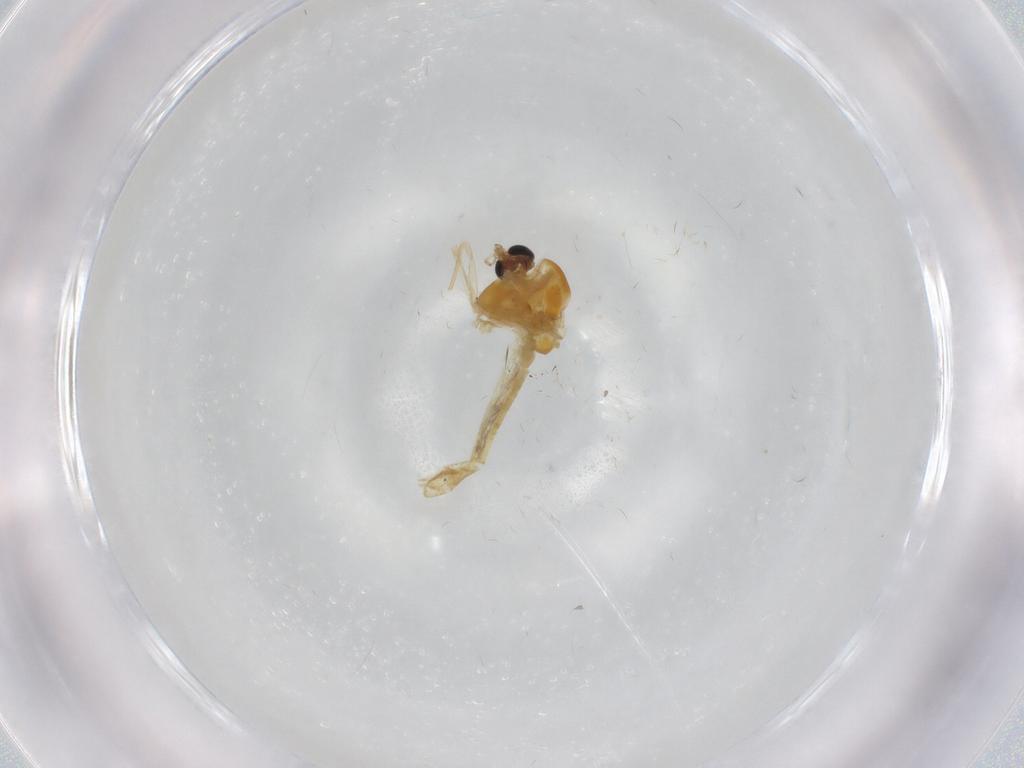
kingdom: Animalia
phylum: Arthropoda
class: Insecta
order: Diptera
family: Chironomidae
